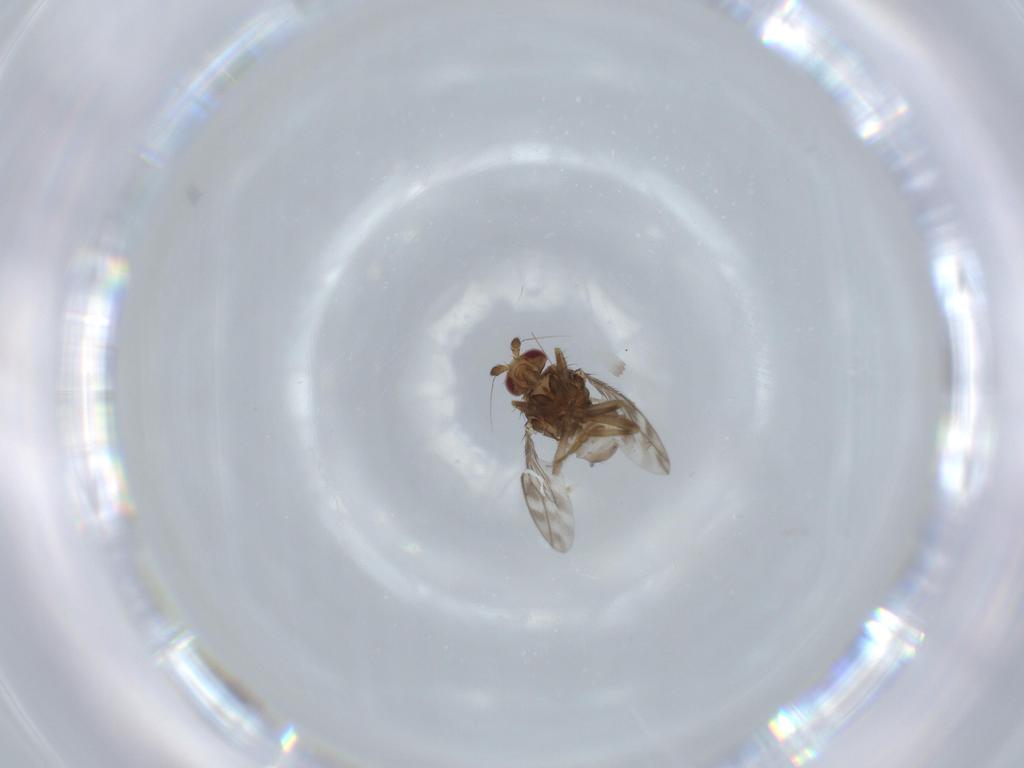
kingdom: Animalia
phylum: Arthropoda
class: Insecta
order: Diptera
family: Sphaeroceridae
